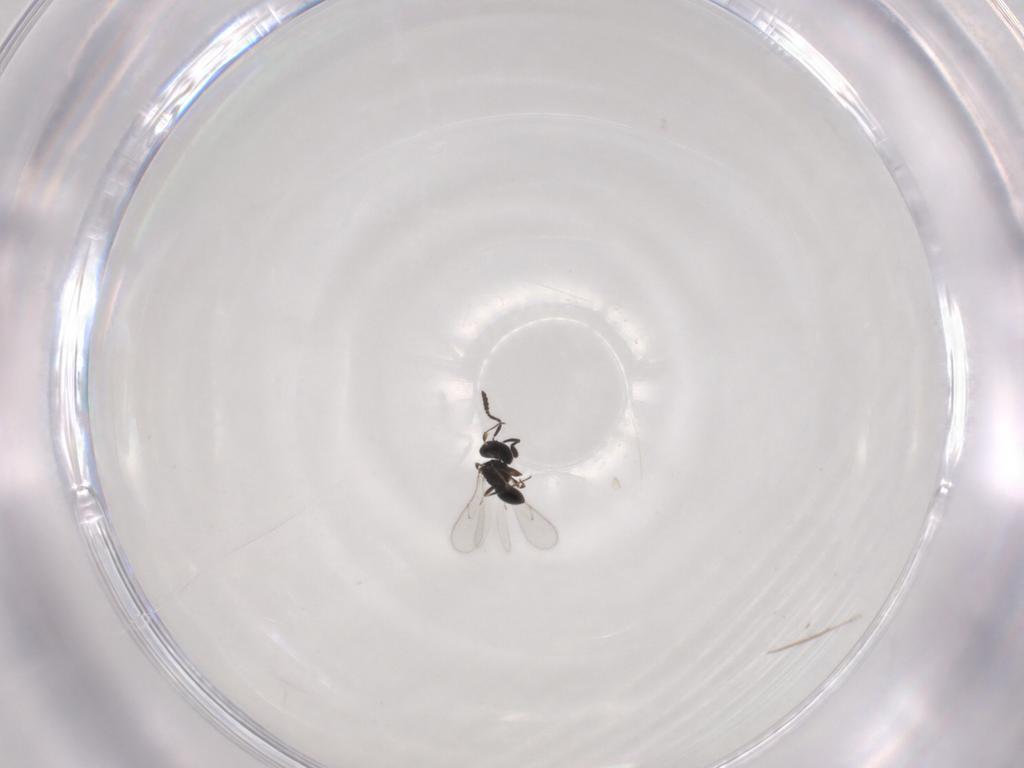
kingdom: Animalia
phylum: Arthropoda
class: Insecta
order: Hymenoptera
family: Scelionidae
